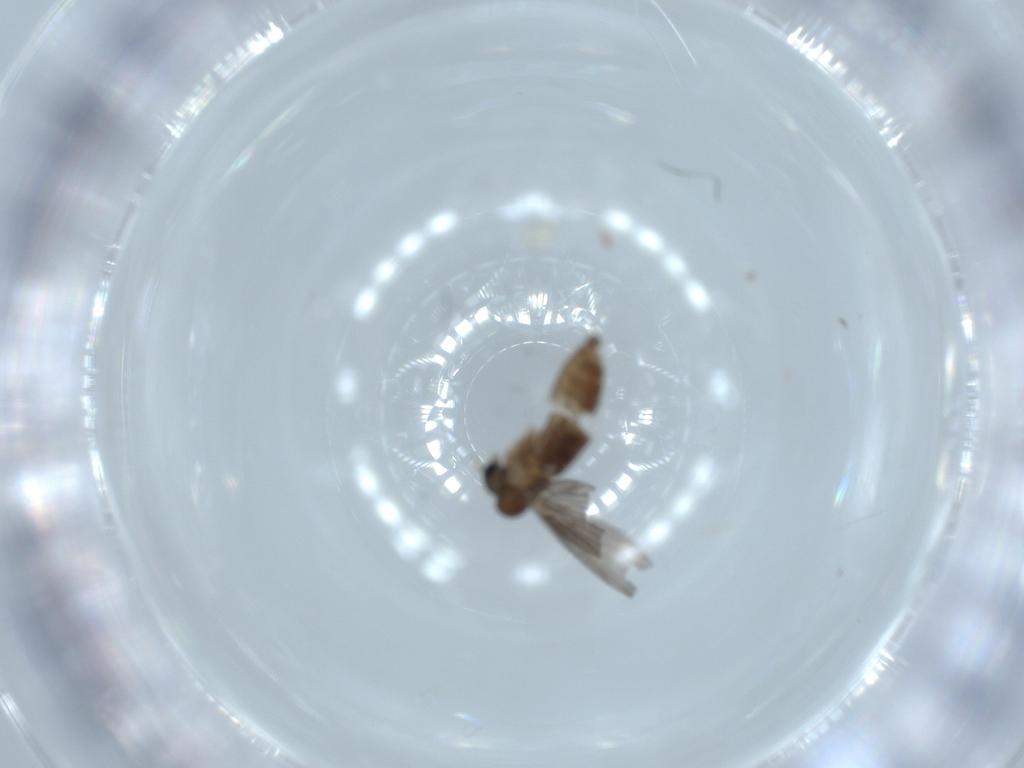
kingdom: Animalia
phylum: Arthropoda
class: Insecta
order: Diptera
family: Psychodidae
